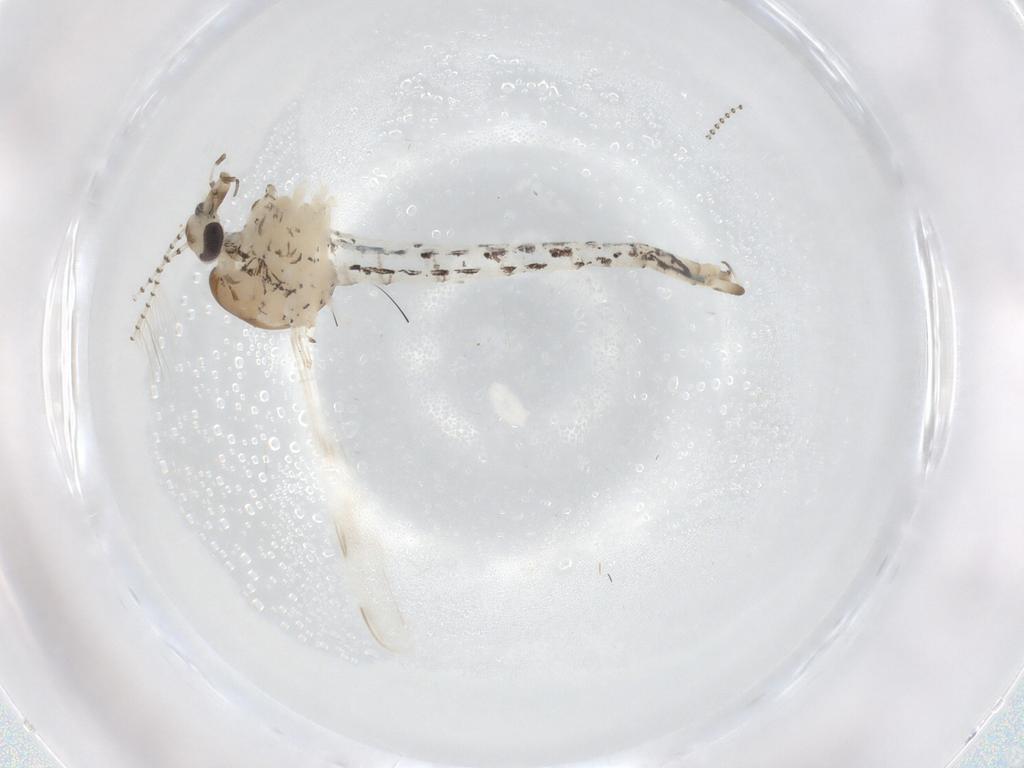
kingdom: Animalia
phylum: Arthropoda
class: Insecta
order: Diptera
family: Chaoboridae
